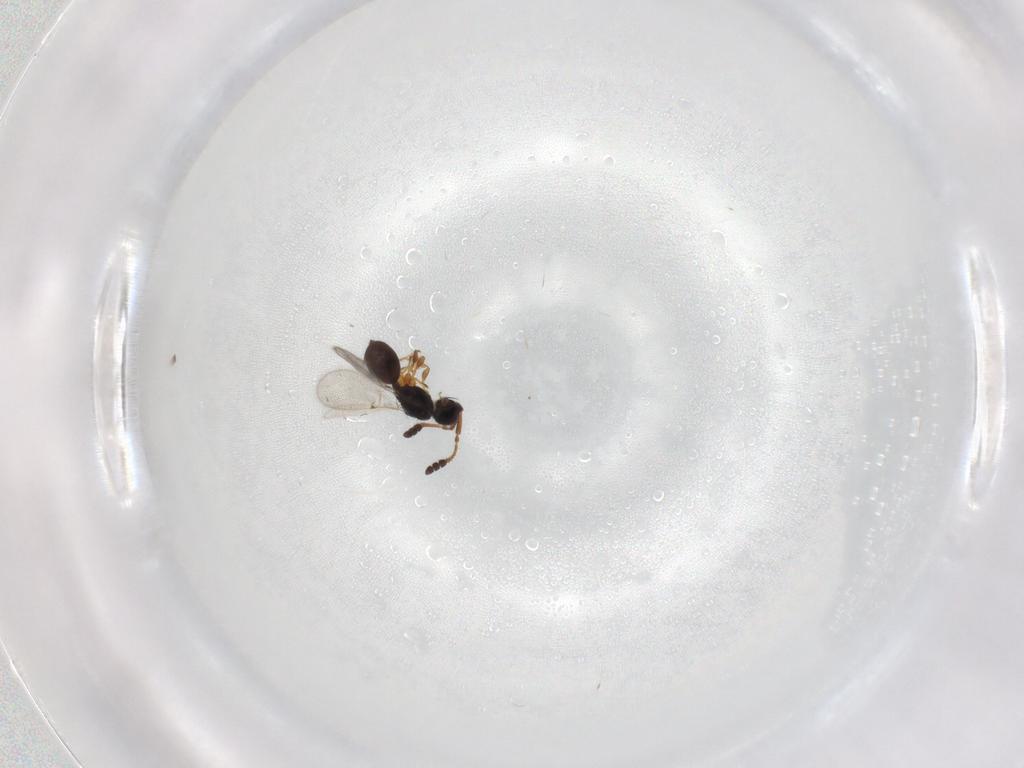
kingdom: Animalia
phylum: Arthropoda
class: Insecta
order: Hymenoptera
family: Diapriidae
